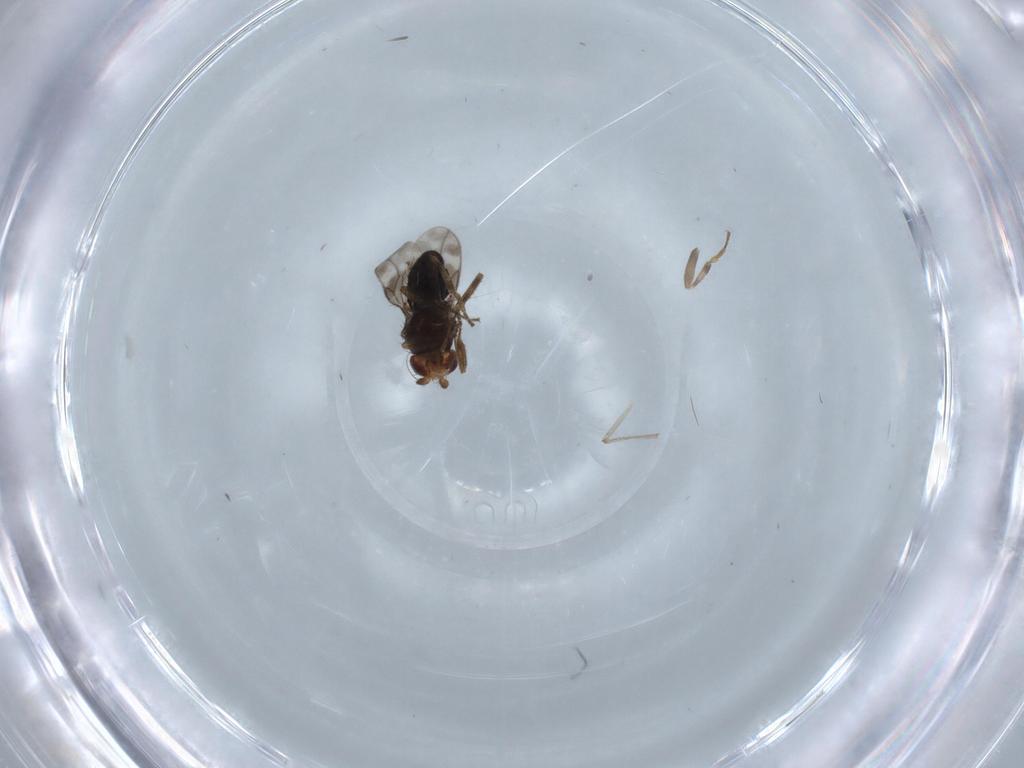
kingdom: Animalia
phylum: Arthropoda
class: Insecta
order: Diptera
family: Sphaeroceridae
